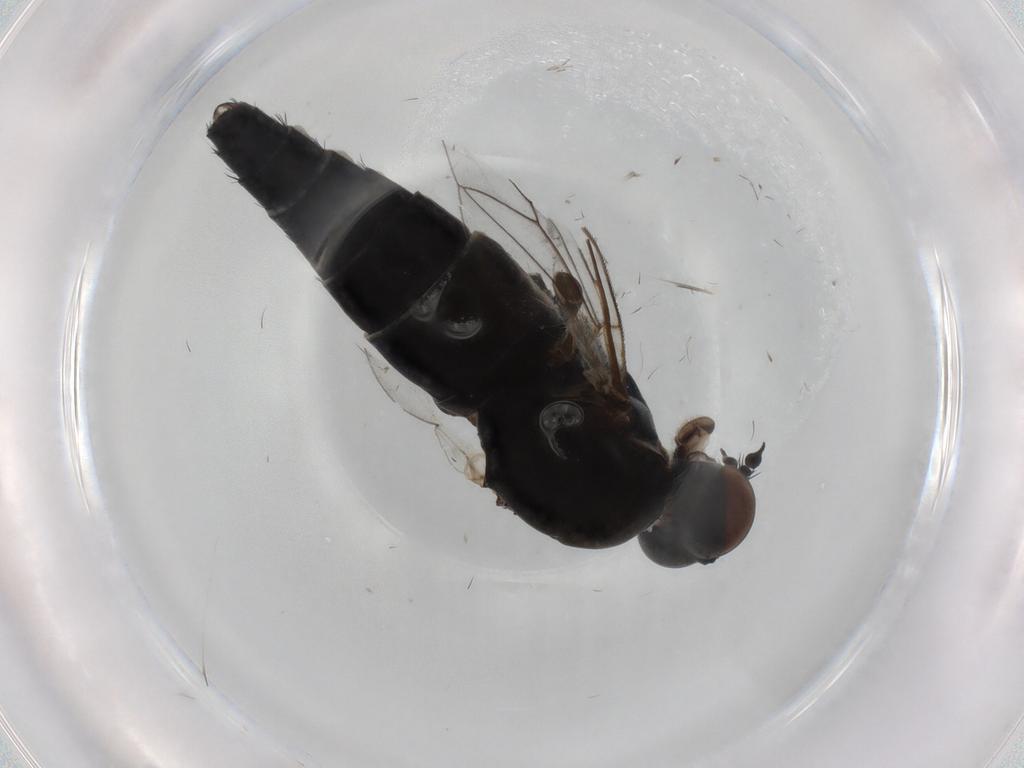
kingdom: Animalia
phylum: Arthropoda
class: Insecta
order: Diptera
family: Therevidae
